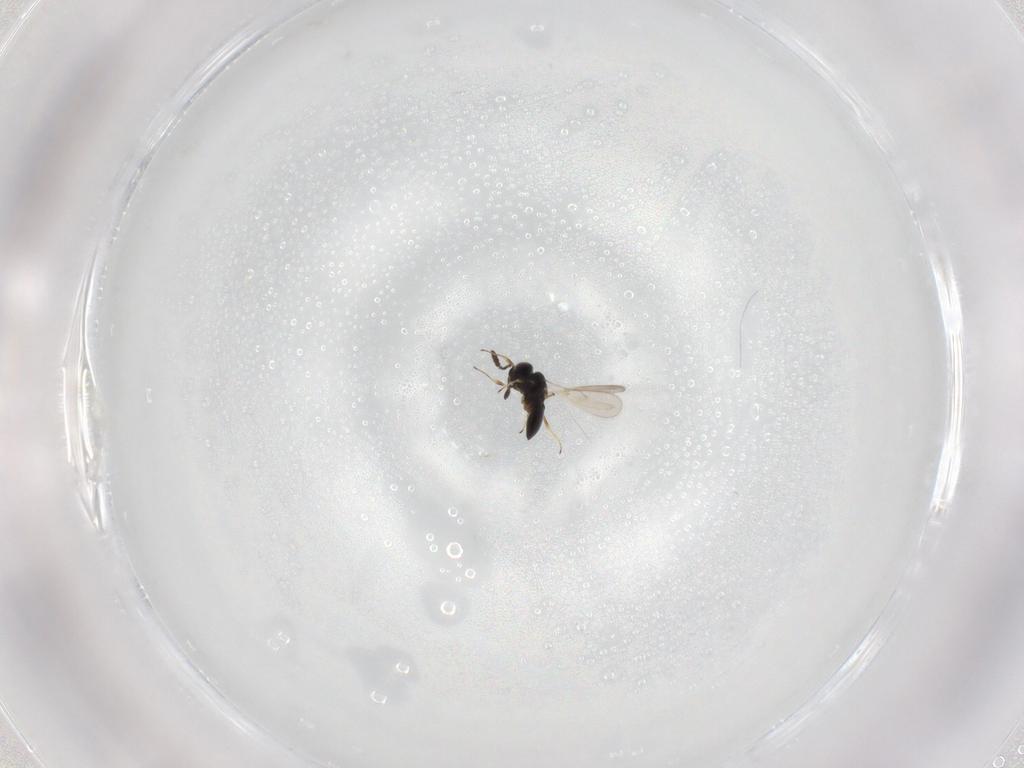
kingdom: Animalia
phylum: Arthropoda
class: Insecta
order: Hymenoptera
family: Scelionidae
